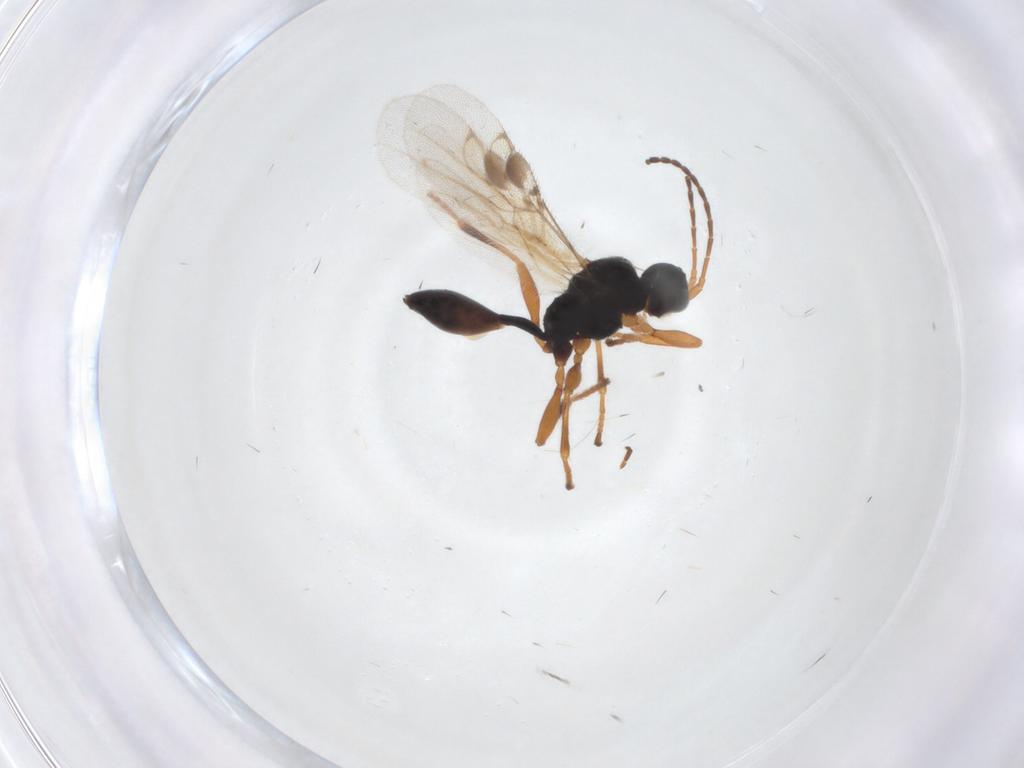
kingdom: Animalia
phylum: Arthropoda
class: Insecta
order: Hymenoptera
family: Braconidae
